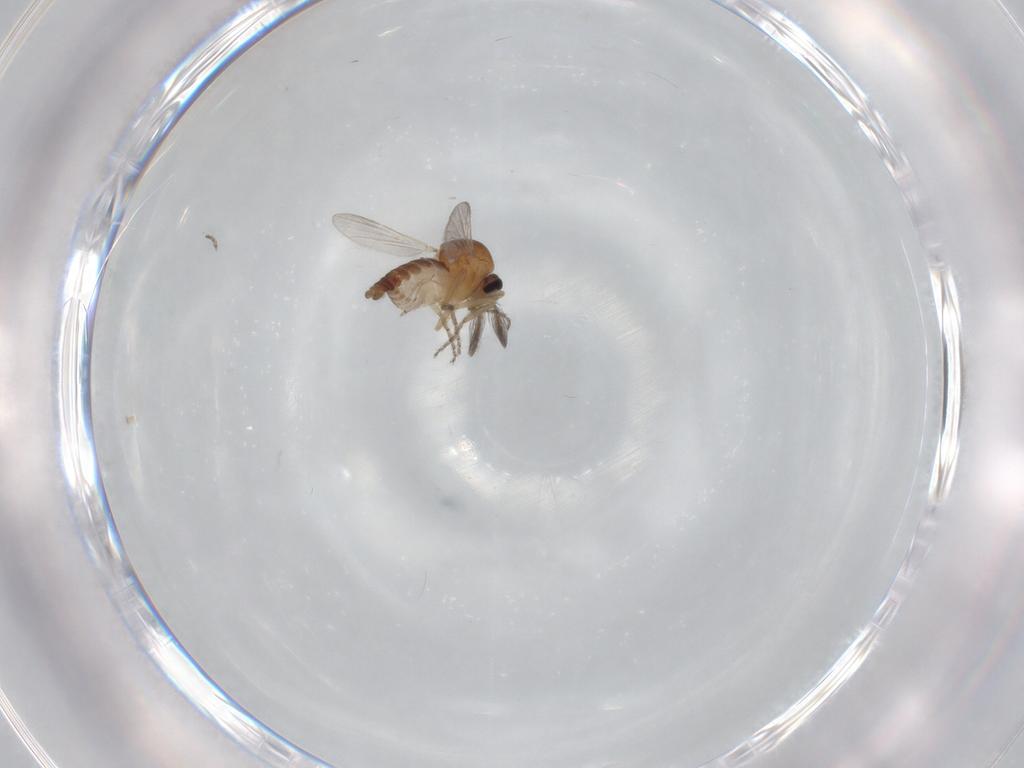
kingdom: Animalia
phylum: Arthropoda
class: Insecta
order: Diptera
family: Ceratopogonidae
